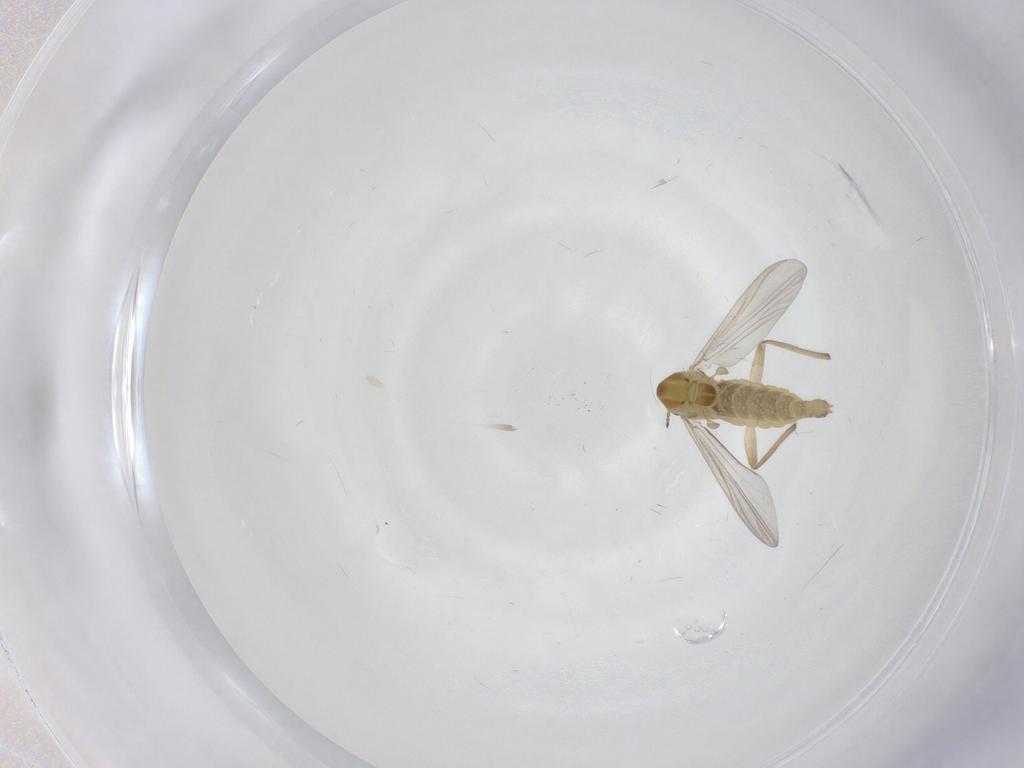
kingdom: Animalia
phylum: Arthropoda
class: Insecta
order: Diptera
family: Chironomidae
